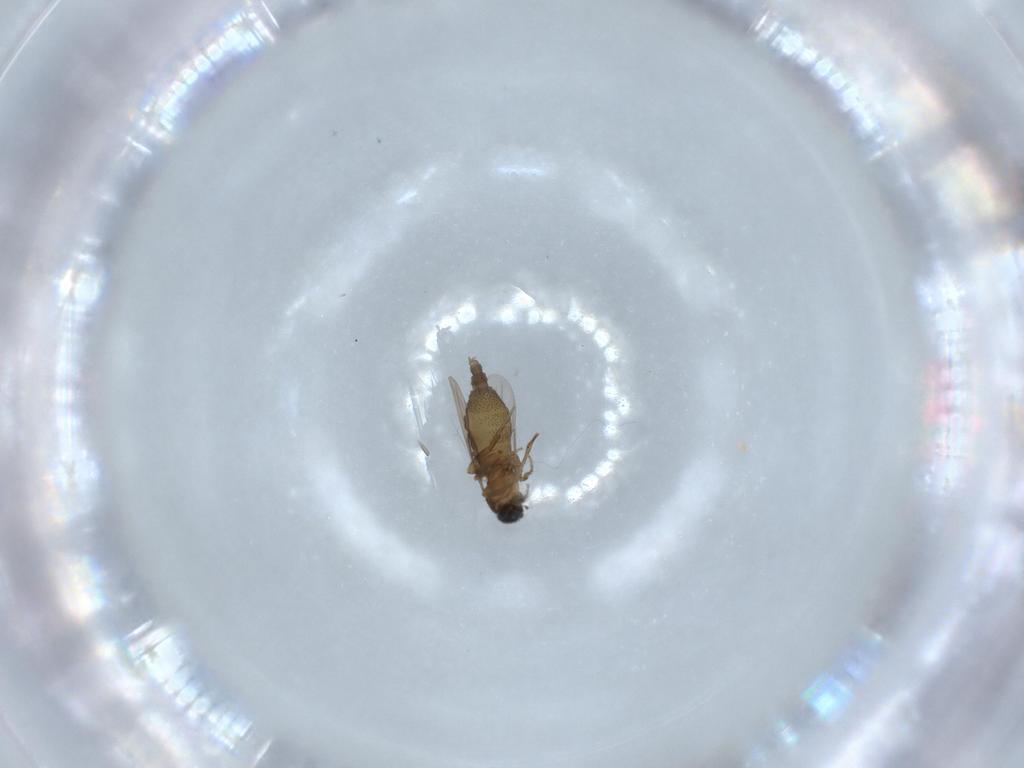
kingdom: Animalia
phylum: Arthropoda
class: Insecta
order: Diptera
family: Phoridae
